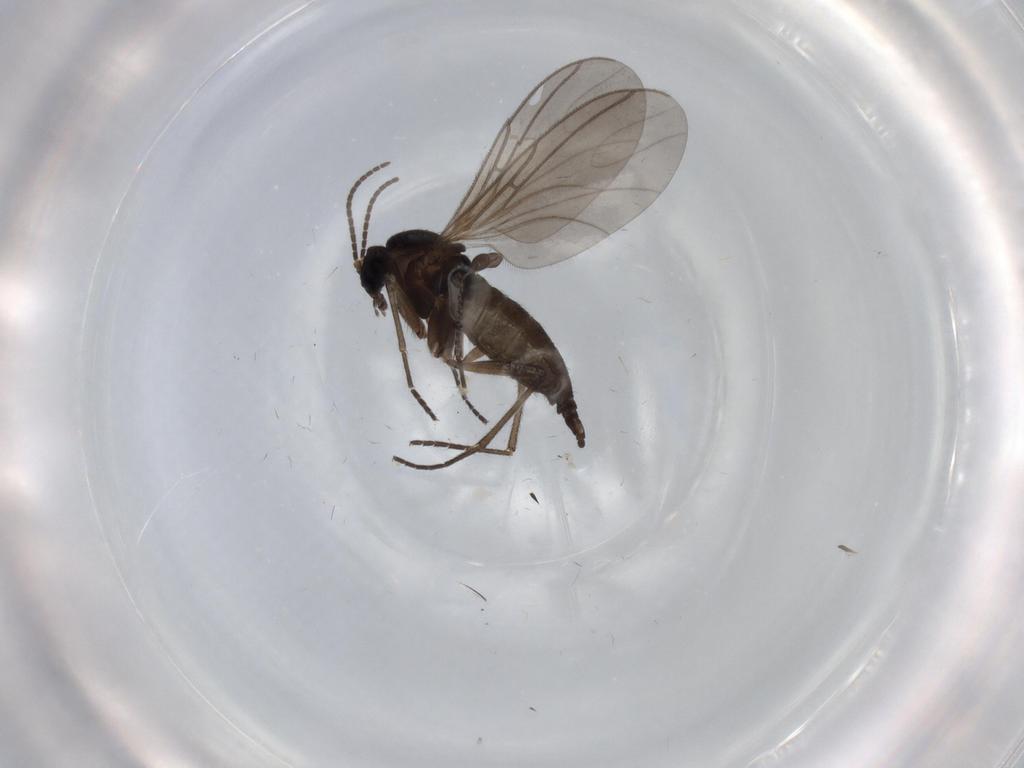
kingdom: Animalia
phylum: Arthropoda
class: Insecta
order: Diptera
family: Sciaridae
